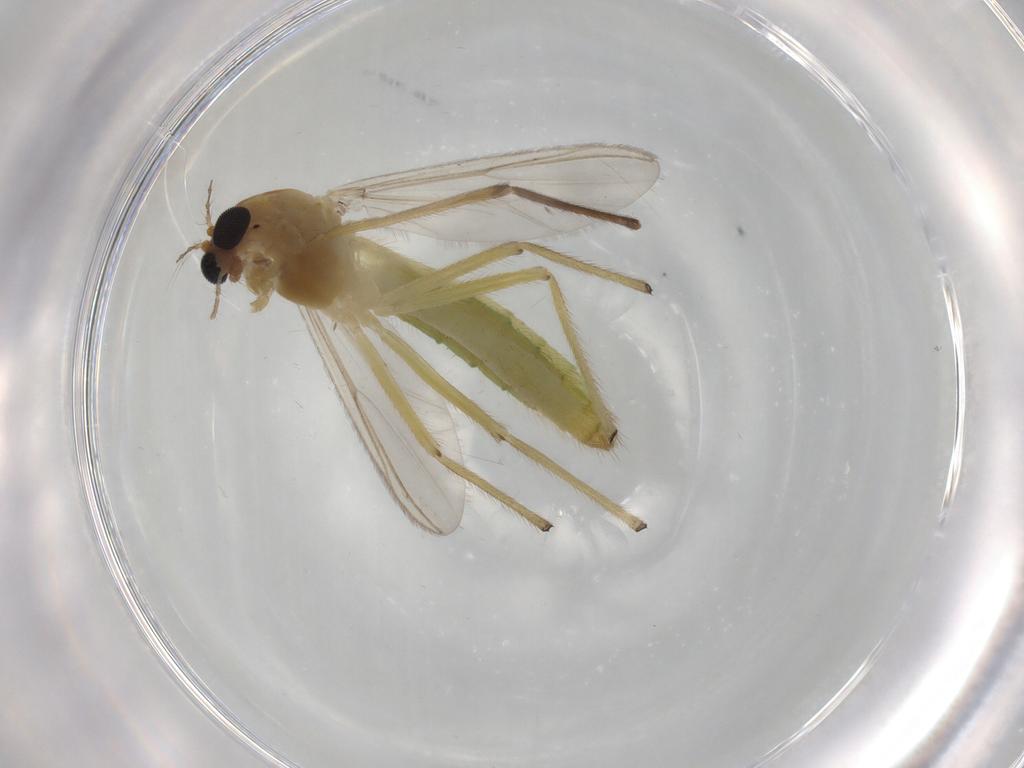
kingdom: Animalia
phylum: Arthropoda
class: Insecta
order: Diptera
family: Chironomidae
